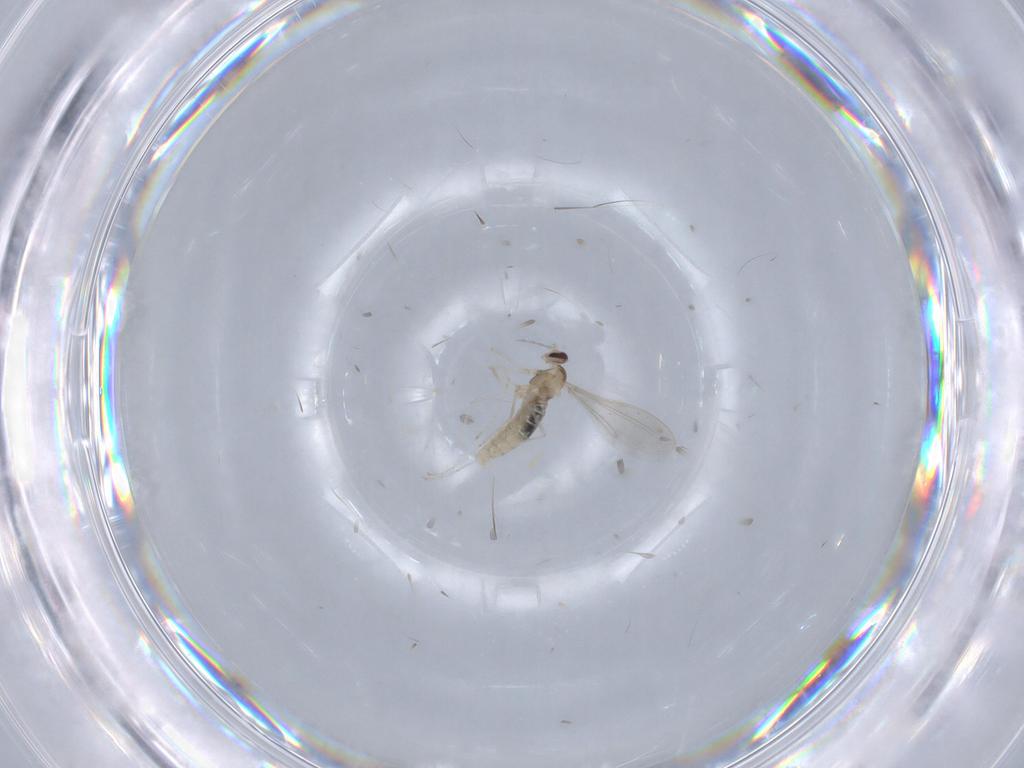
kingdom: Animalia
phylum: Arthropoda
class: Insecta
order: Diptera
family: Cecidomyiidae
